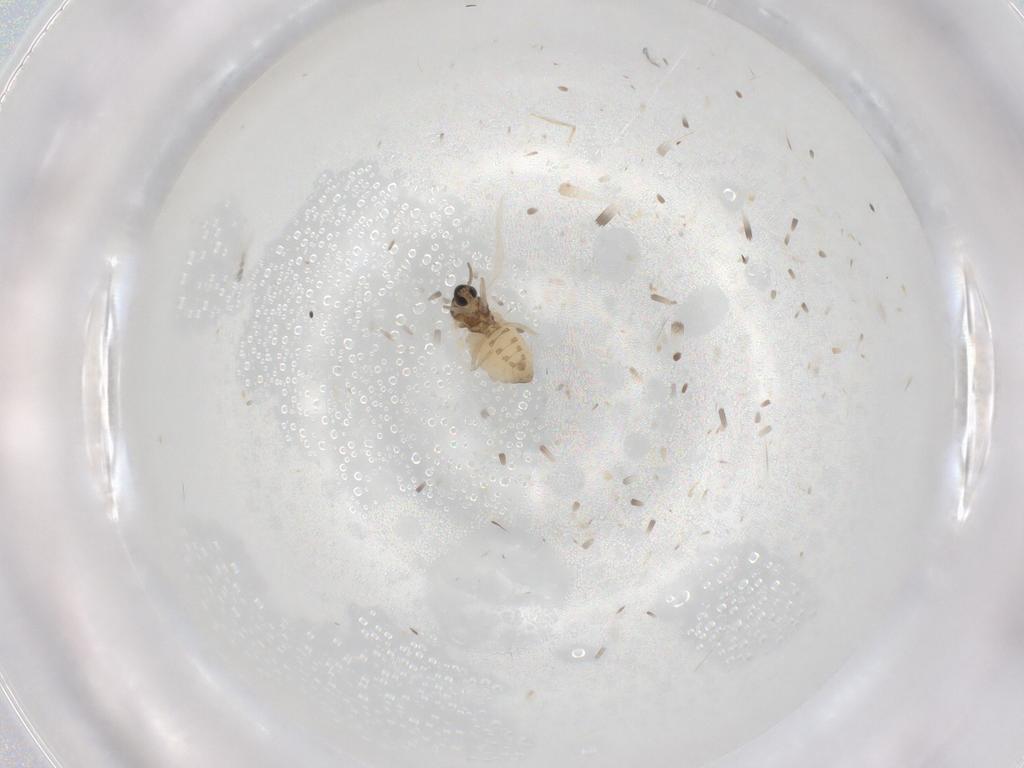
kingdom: Animalia
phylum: Arthropoda
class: Insecta
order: Diptera
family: Cecidomyiidae
